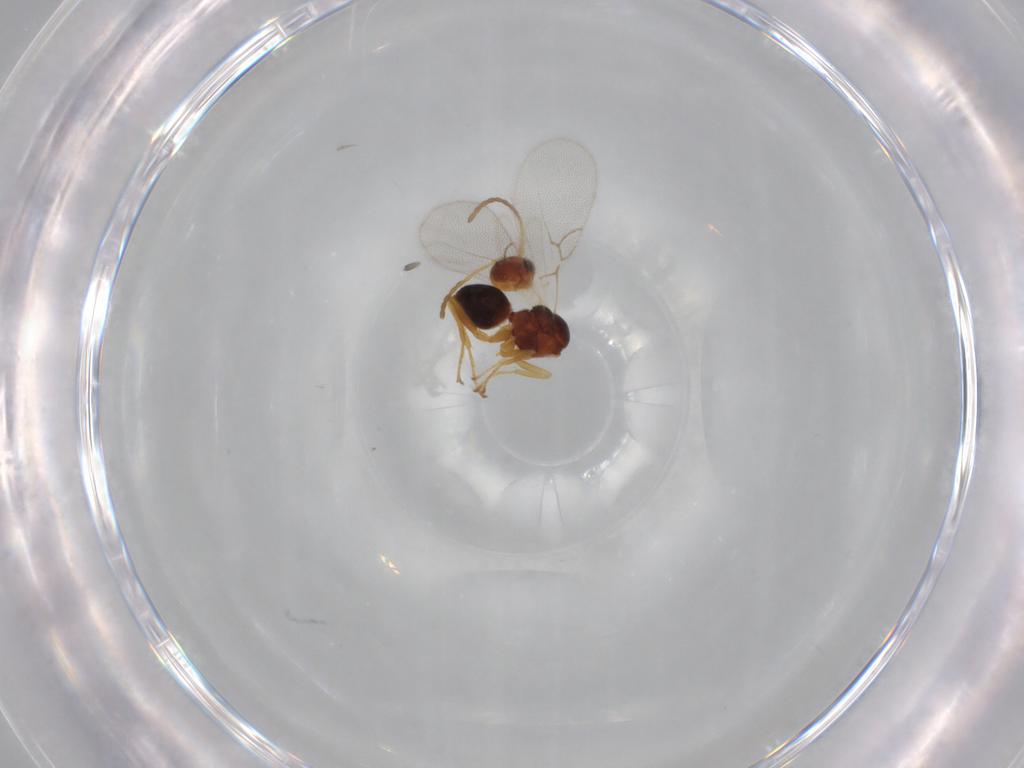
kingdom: Animalia
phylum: Arthropoda
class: Insecta
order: Hymenoptera
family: Figitidae
